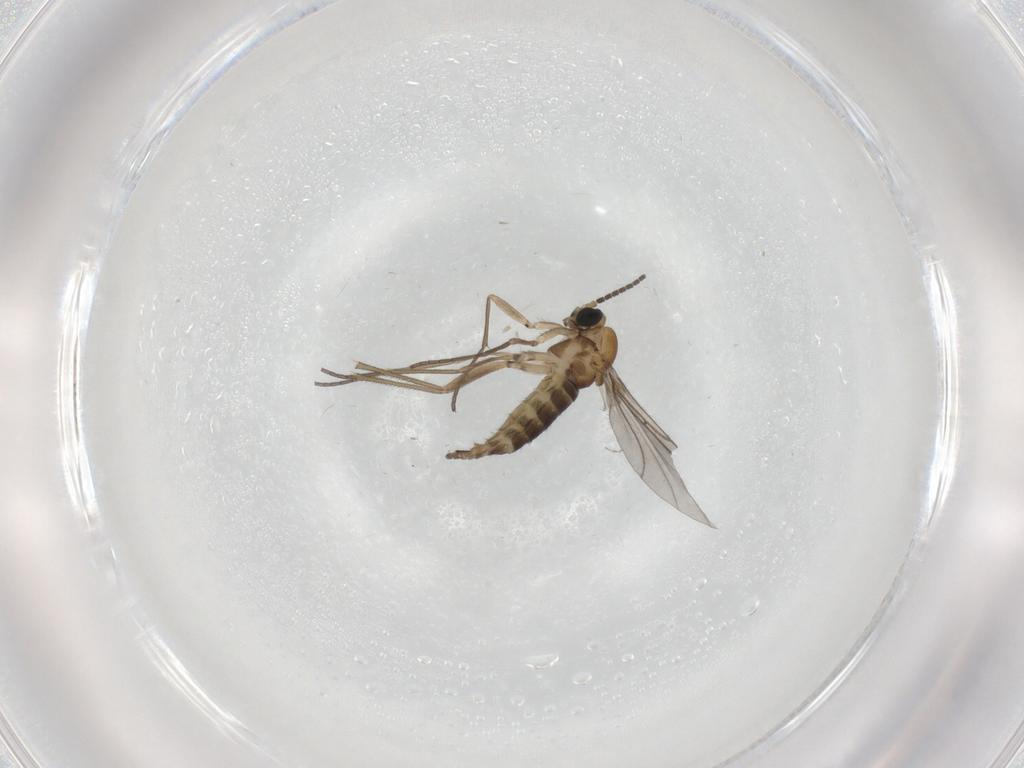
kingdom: Animalia
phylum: Arthropoda
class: Insecta
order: Diptera
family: Sciaridae
